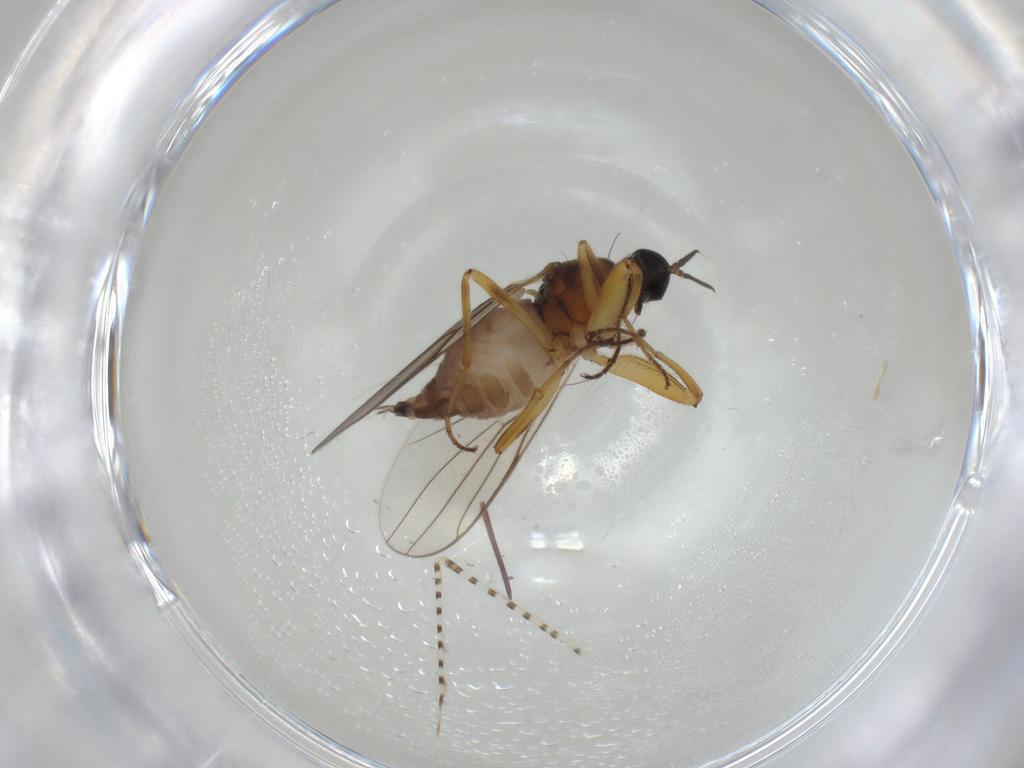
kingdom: Animalia
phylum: Arthropoda
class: Insecta
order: Diptera
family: Hybotidae
